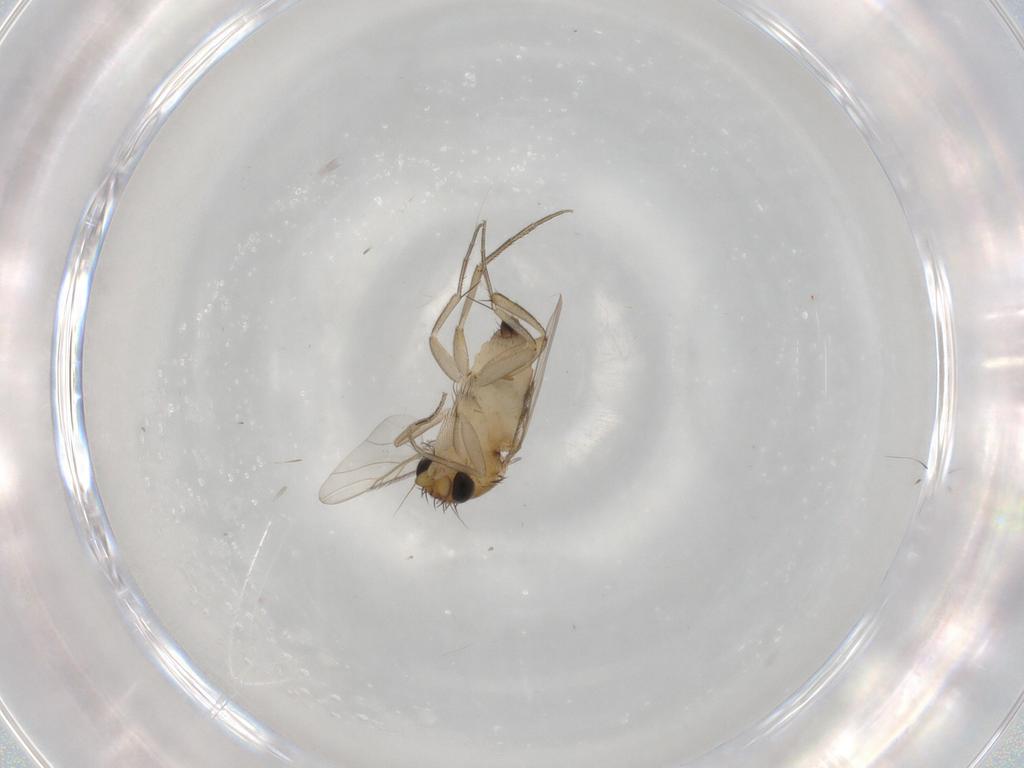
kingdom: Animalia
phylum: Arthropoda
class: Insecta
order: Diptera
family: Phoridae
